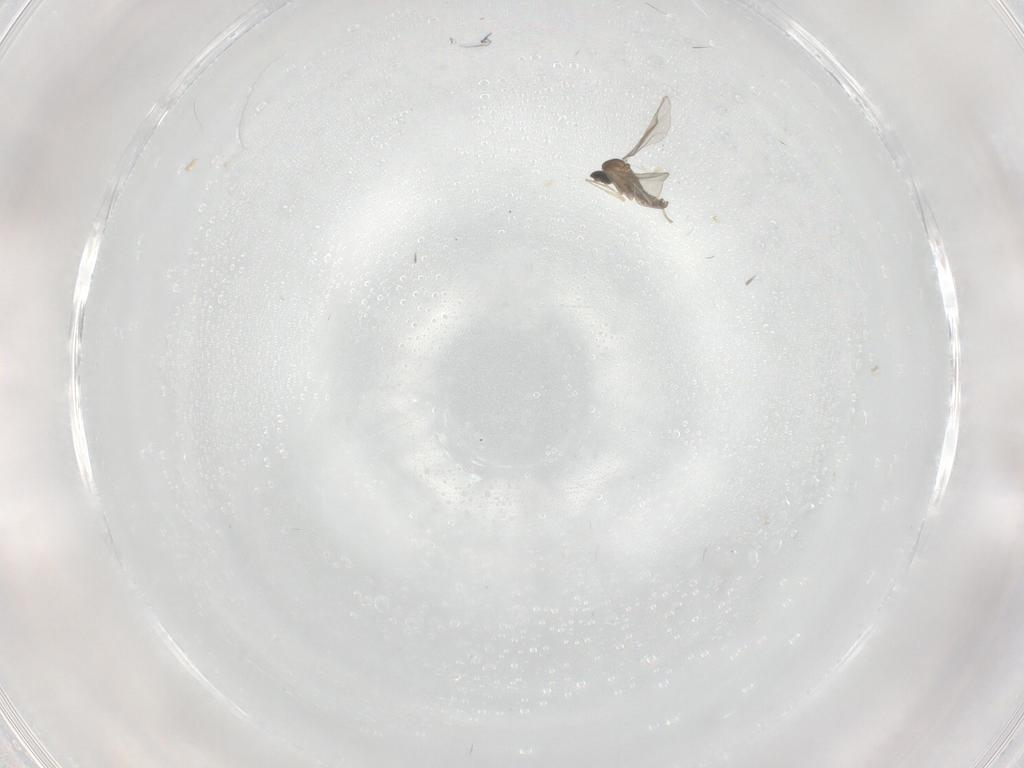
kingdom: Animalia
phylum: Arthropoda
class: Insecta
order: Diptera
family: Cecidomyiidae
